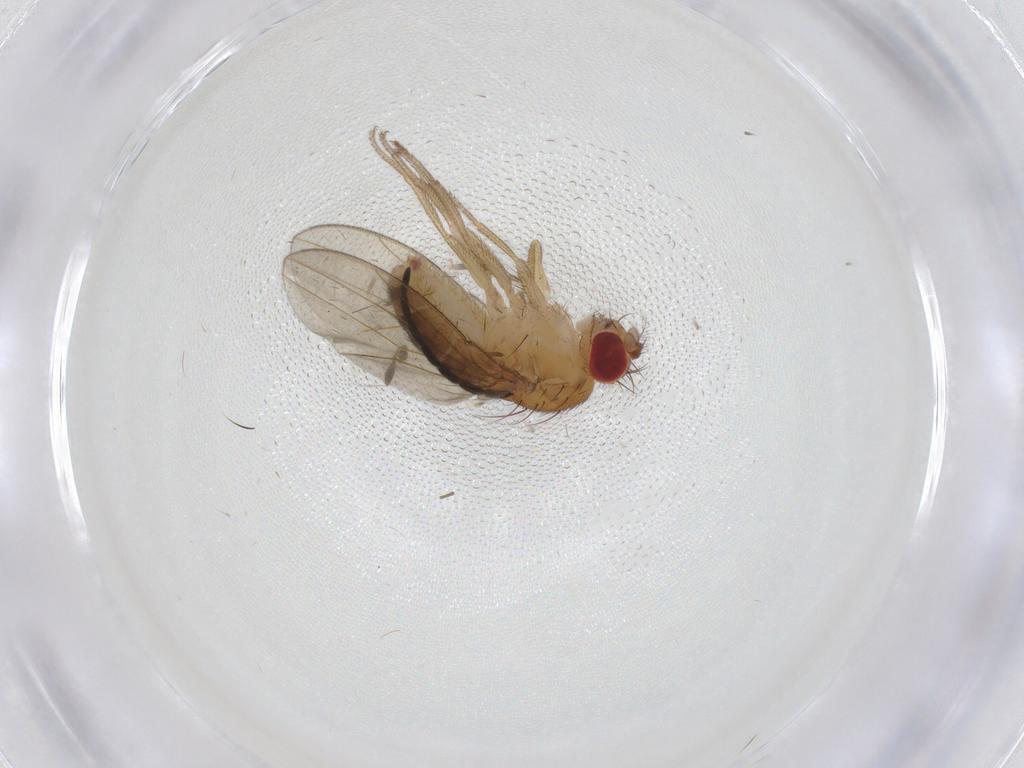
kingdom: Animalia
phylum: Arthropoda
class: Insecta
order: Diptera
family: Drosophilidae
